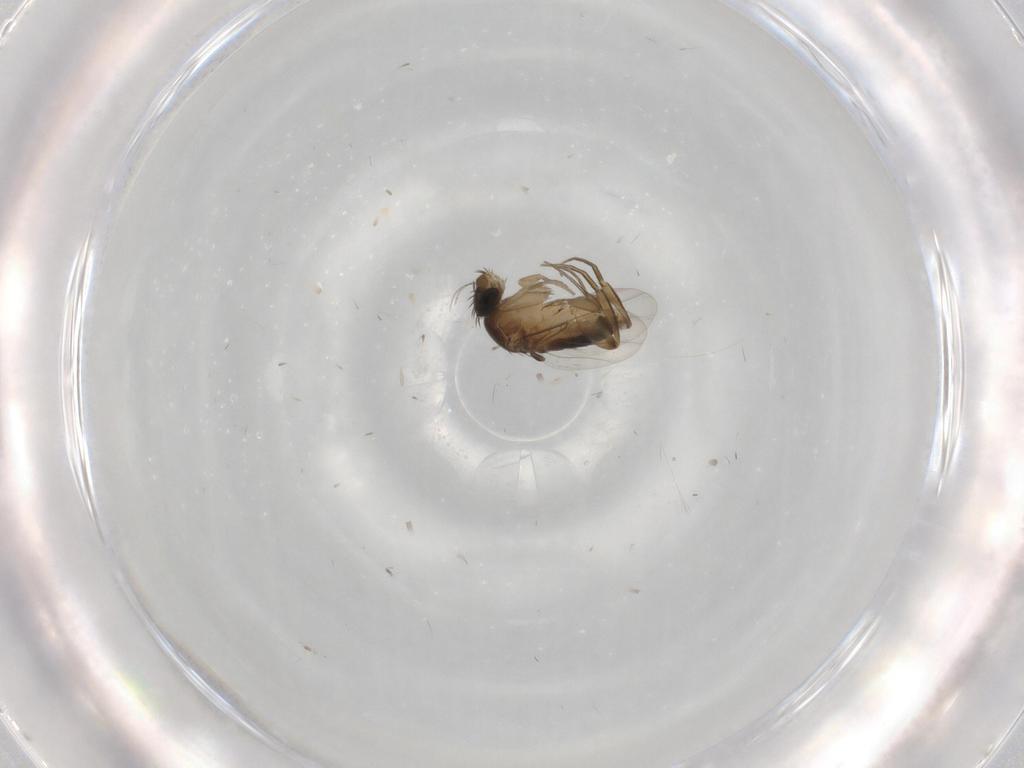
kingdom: Animalia
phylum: Arthropoda
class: Insecta
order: Diptera
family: Phoridae
